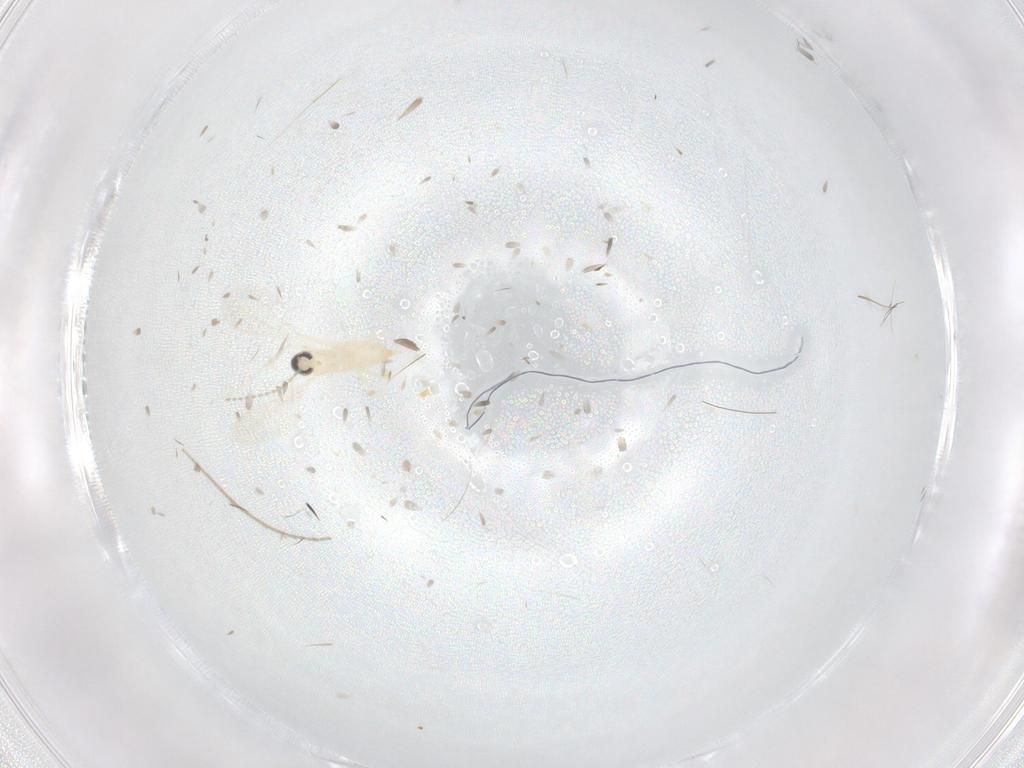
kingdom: Animalia
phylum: Arthropoda
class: Insecta
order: Diptera
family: Cecidomyiidae
